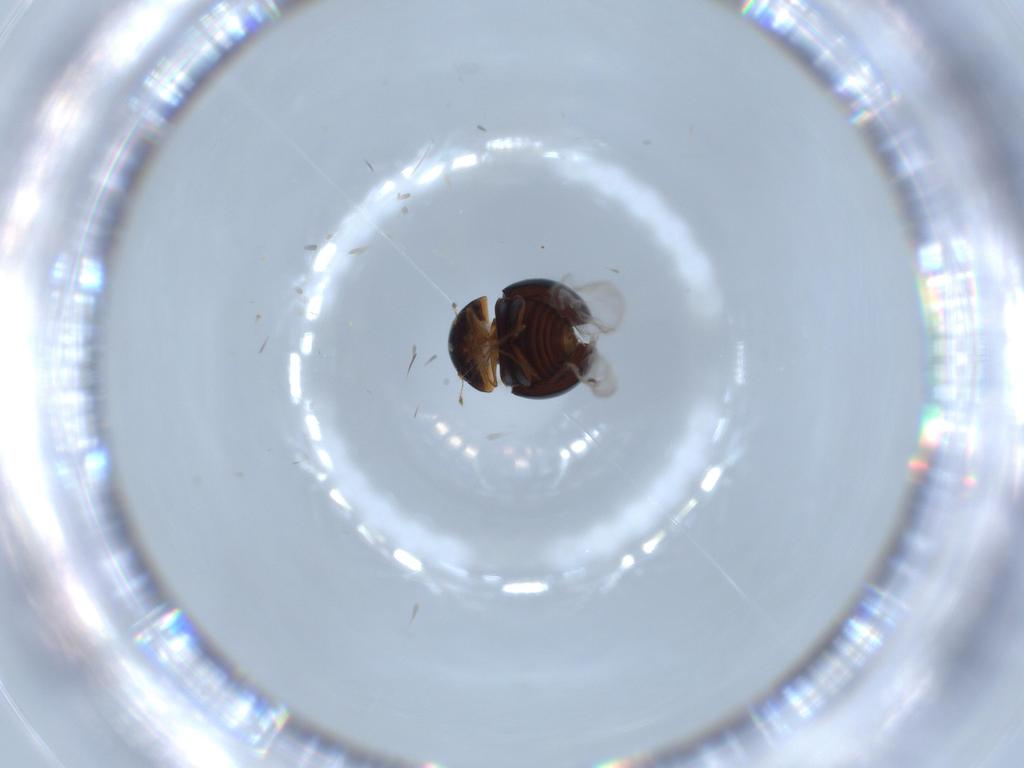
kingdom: Animalia
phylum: Arthropoda
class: Insecta
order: Coleoptera
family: Clambidae
